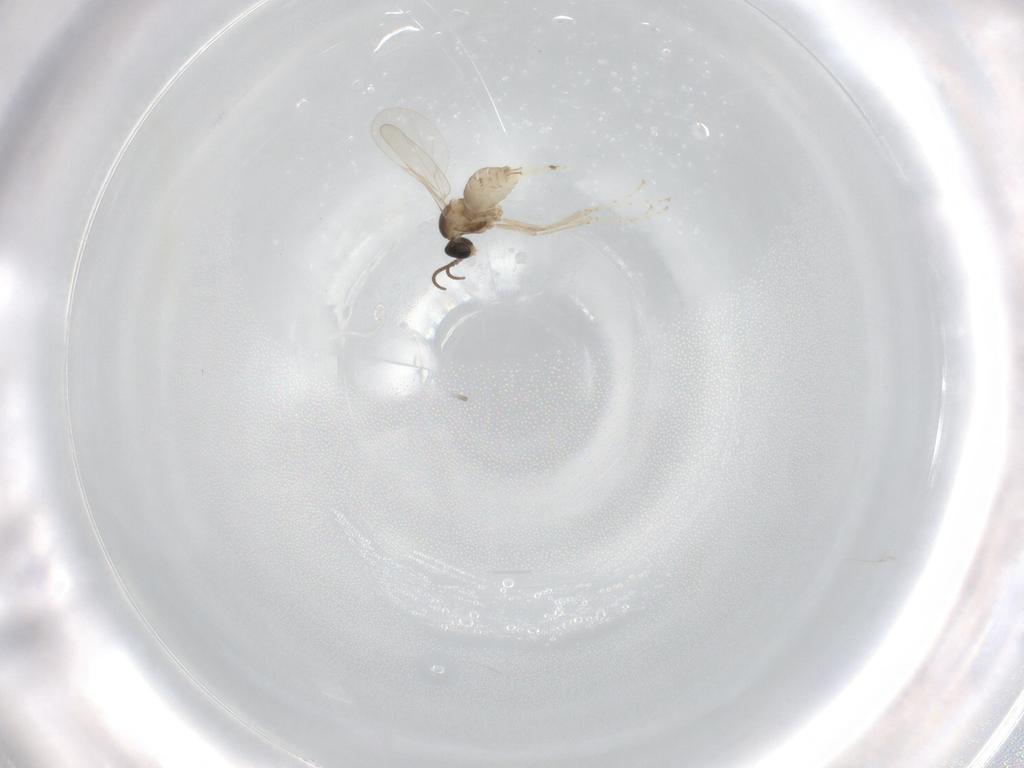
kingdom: Animalia
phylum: Arthropoda
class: Insecta
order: Diptera
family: Cecidomyiidae
